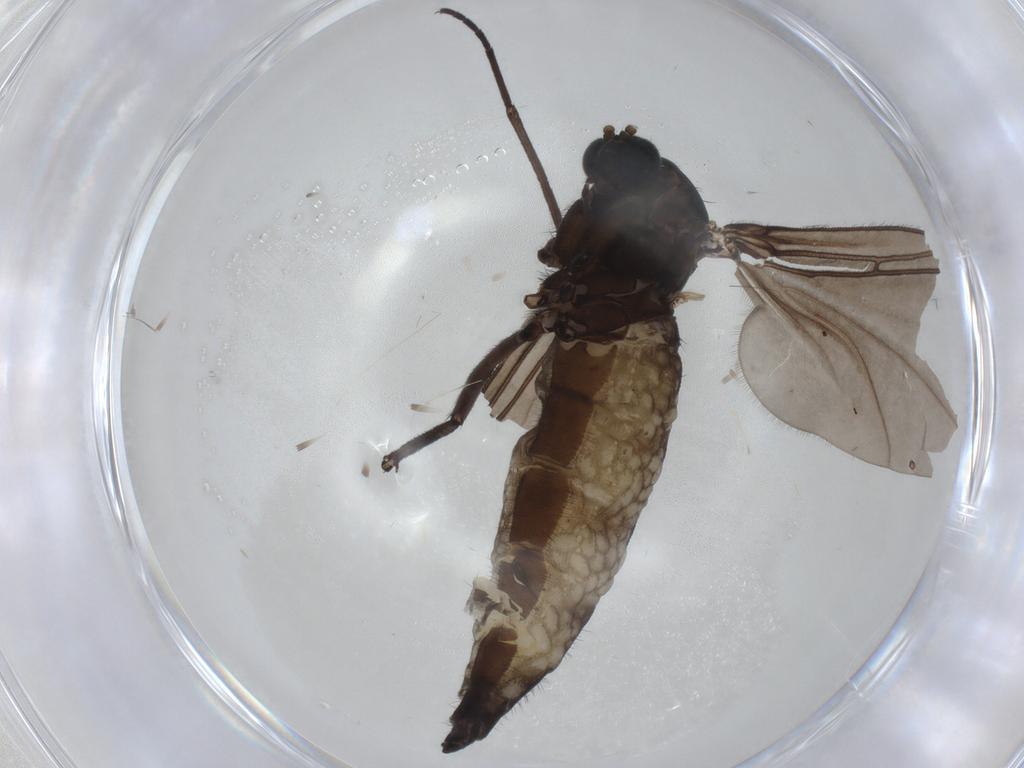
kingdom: Animalia
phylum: Arthropoda
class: Insecta
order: Diptera
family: Sciaridae
